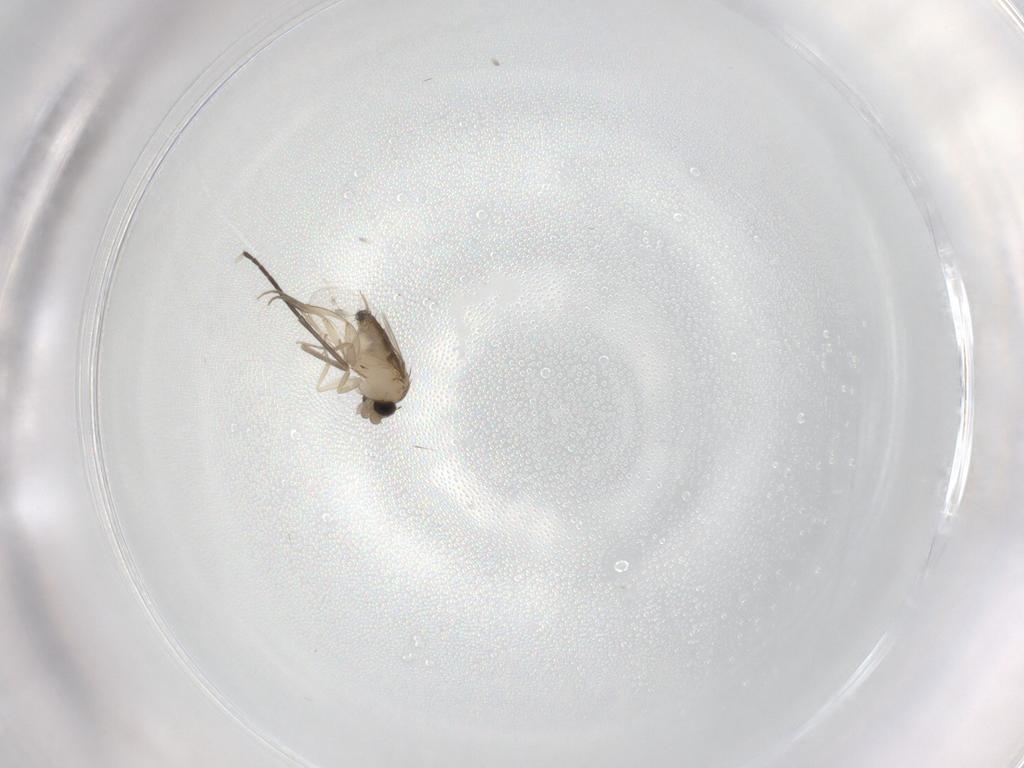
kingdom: Animalia
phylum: Arthropoda
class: Insecta
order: Diptera
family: Sciaridae
